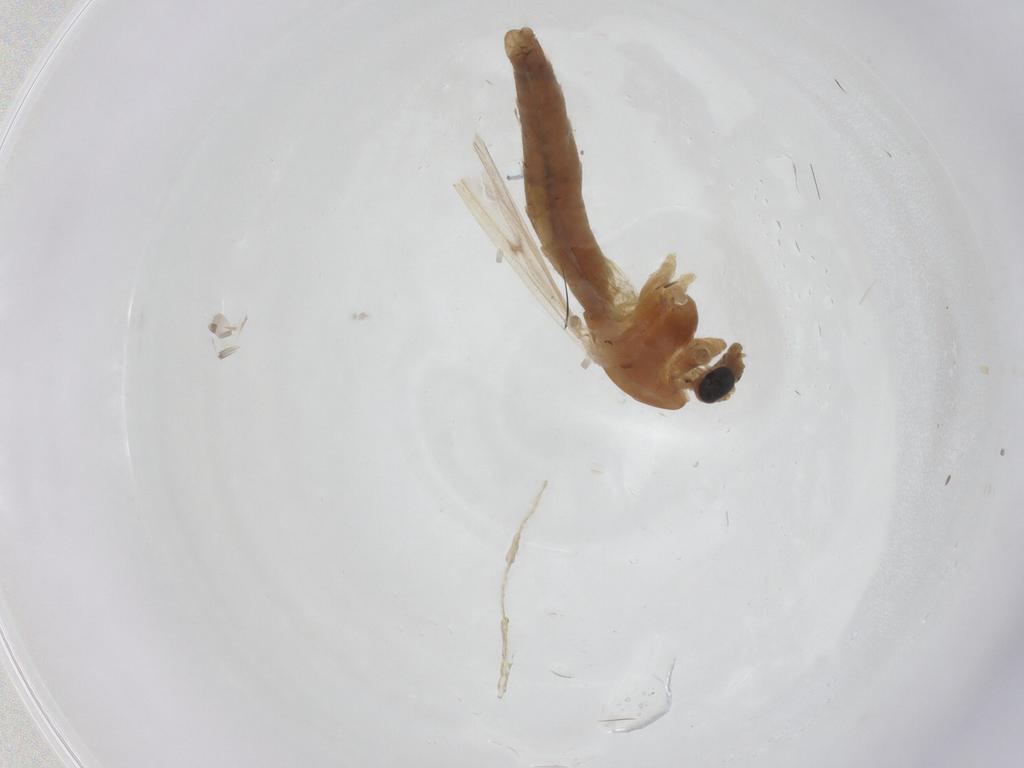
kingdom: Animalia
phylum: Arthropoda
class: Insecta
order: Diptera
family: Chironomidae
